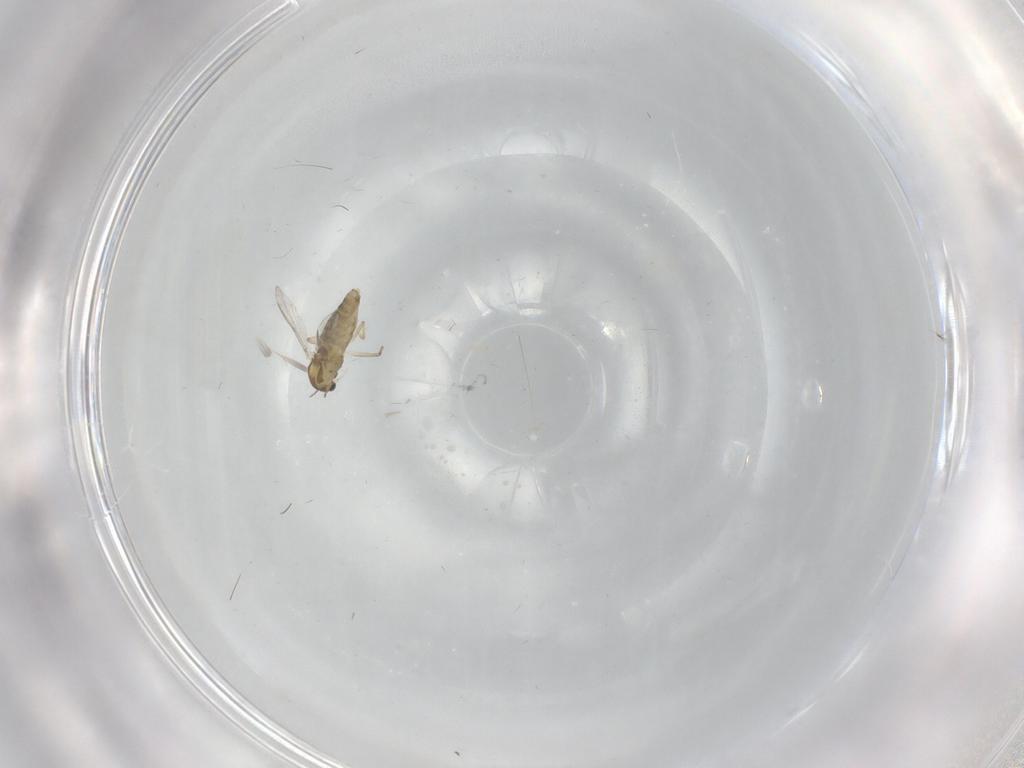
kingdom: Animalia
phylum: Arthropoda
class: Insecta
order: Diptera
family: Chironomidae
